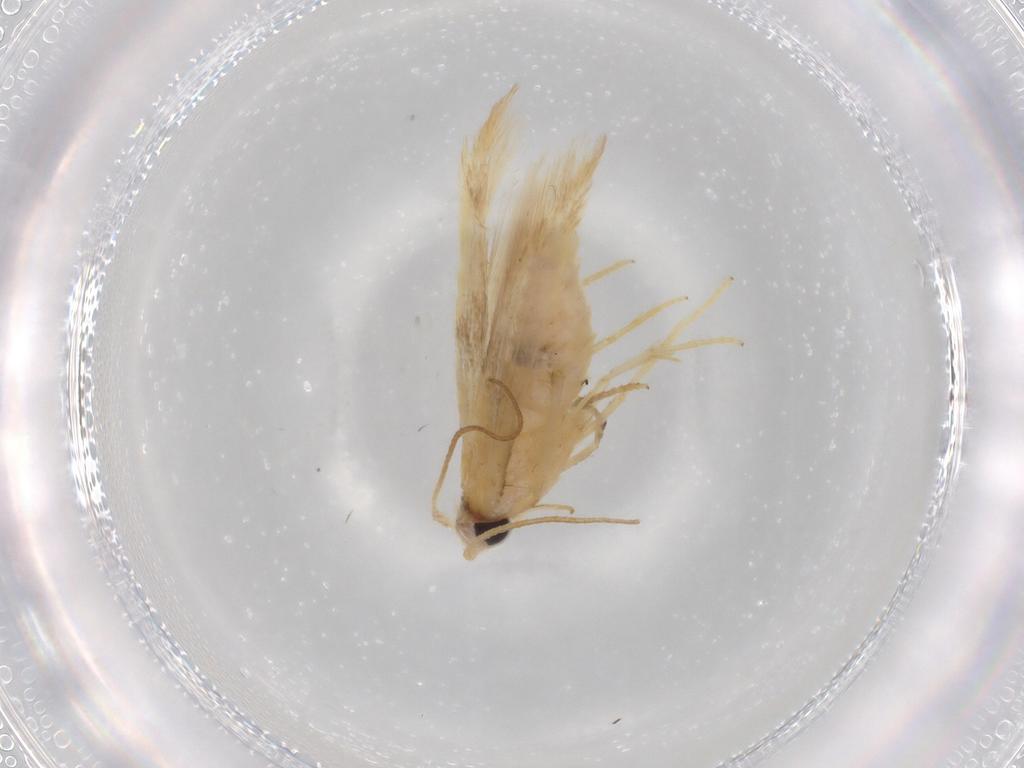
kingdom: Animalia
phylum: Arthropoda
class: Insecta
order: Lepidoptera
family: Erebidae
